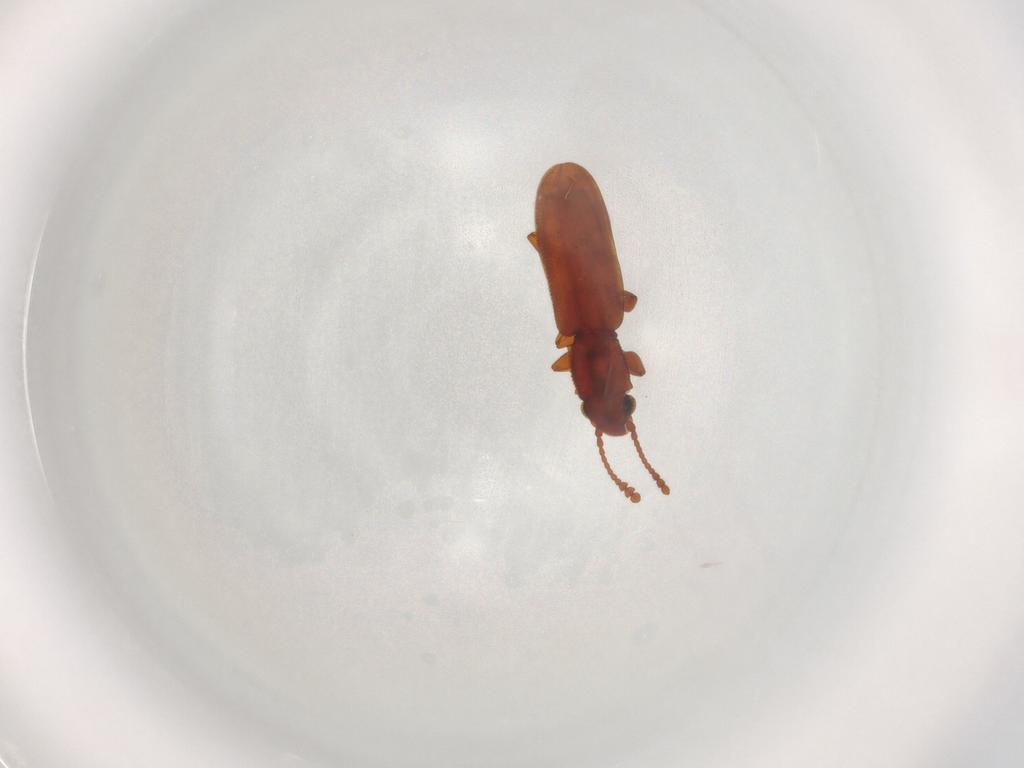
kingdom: Animalia
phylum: Arthropoda
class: Insecta
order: Coleoptera
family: Silvanidae
